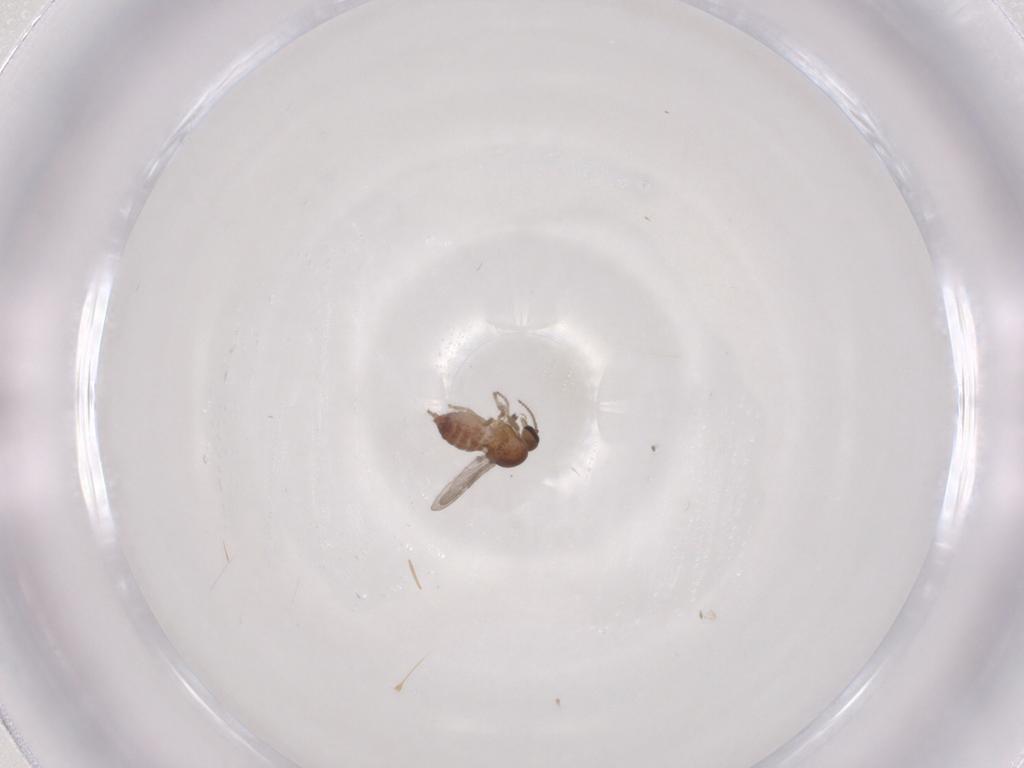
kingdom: Animalia
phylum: Arthropoda
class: Insecta
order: Diptera
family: Ceratopogonidae
